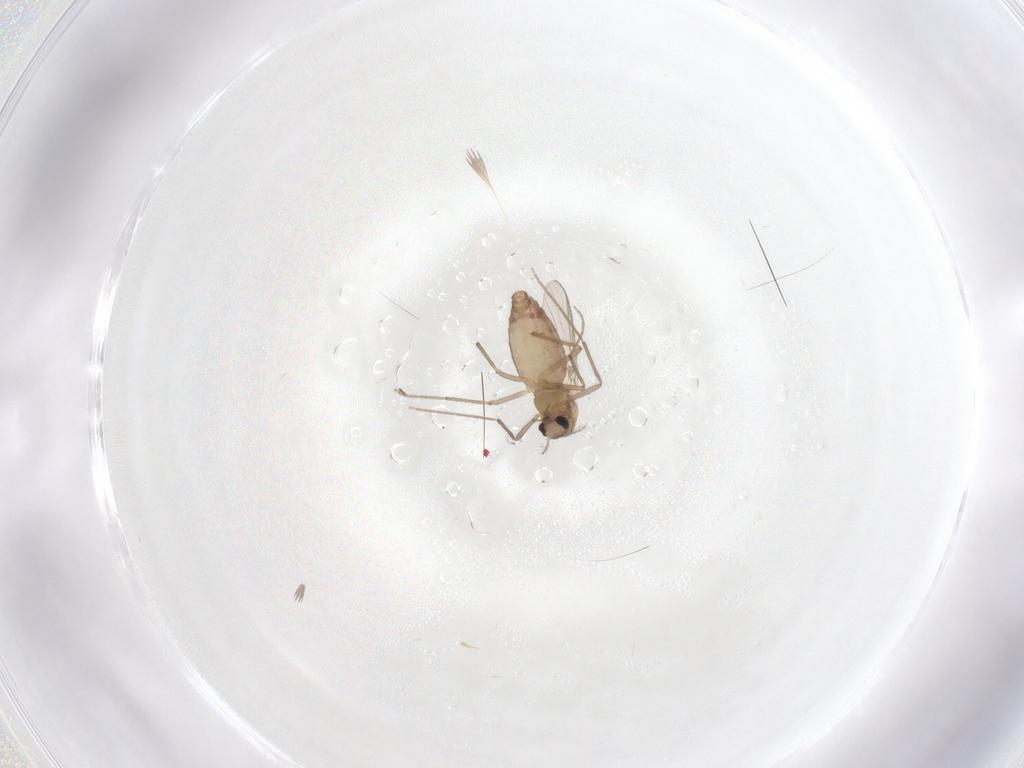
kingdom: Animalia
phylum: Arthropoda
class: Insecta
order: Diptera
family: Chironomidae
